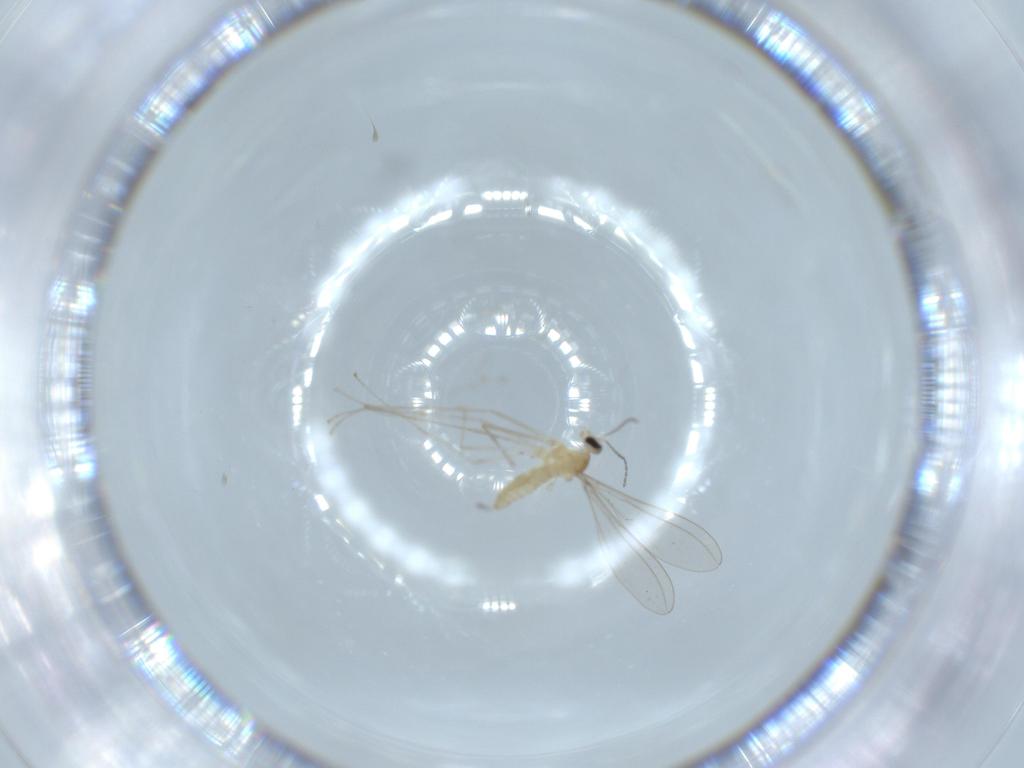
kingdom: Animalia
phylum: Arthropoda
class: Insecta
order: Diptera
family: Cecidomyiidae
